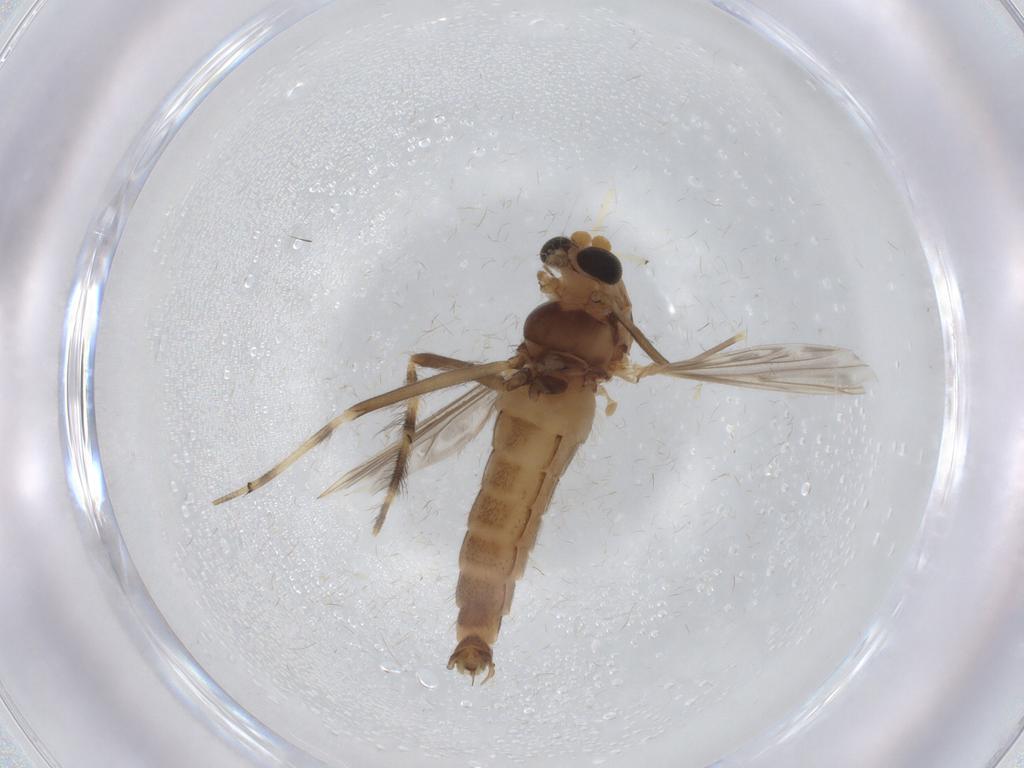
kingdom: Animalia
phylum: Arthropoda
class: Insecta
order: Diptera
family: Chironomidae
